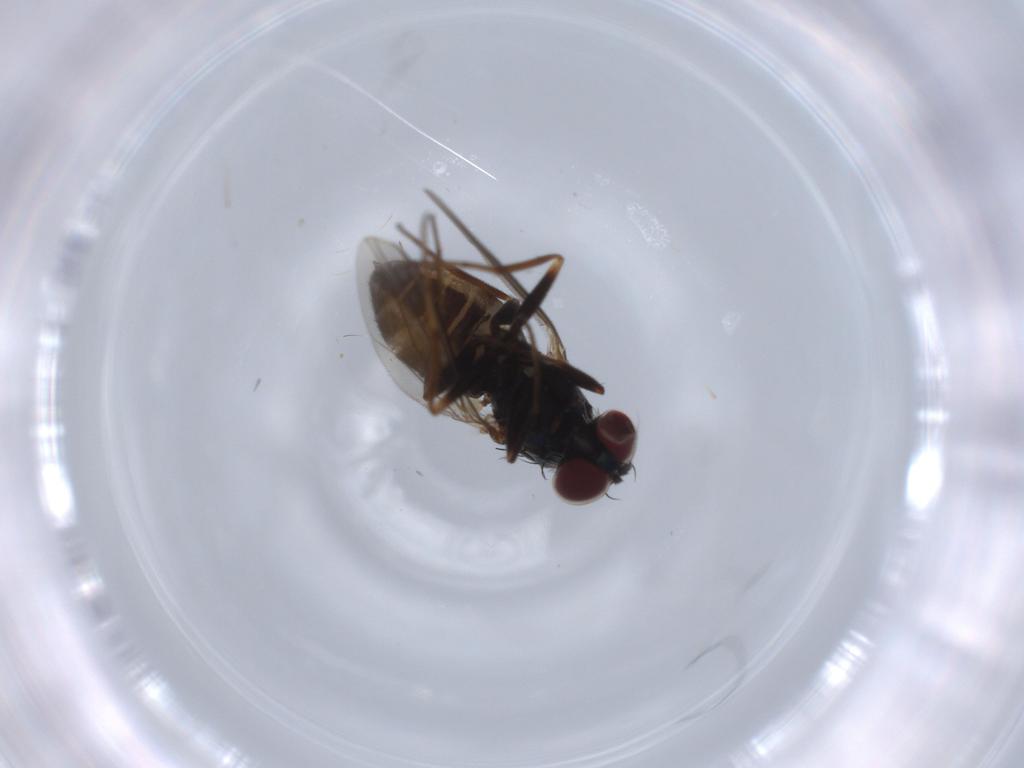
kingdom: Animalia
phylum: Arthropoda
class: Insecta
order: Diptera
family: Dolichopodidae
